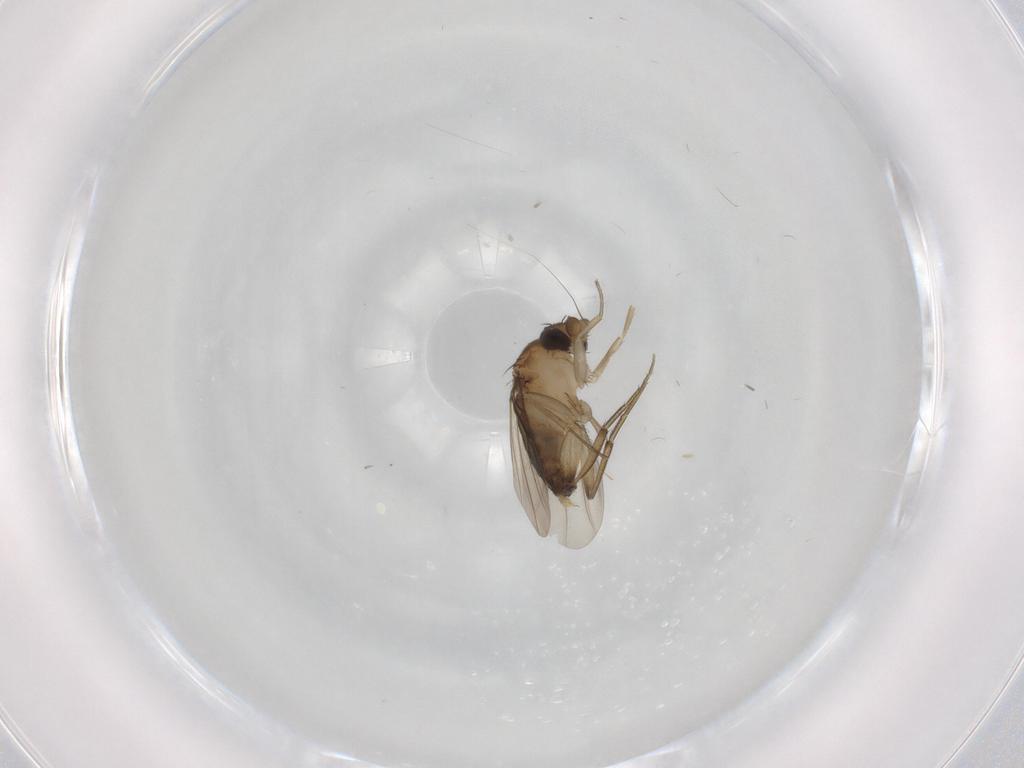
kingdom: Animalia
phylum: Arthropoda
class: Insecta
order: Diptera
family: Phoridae
